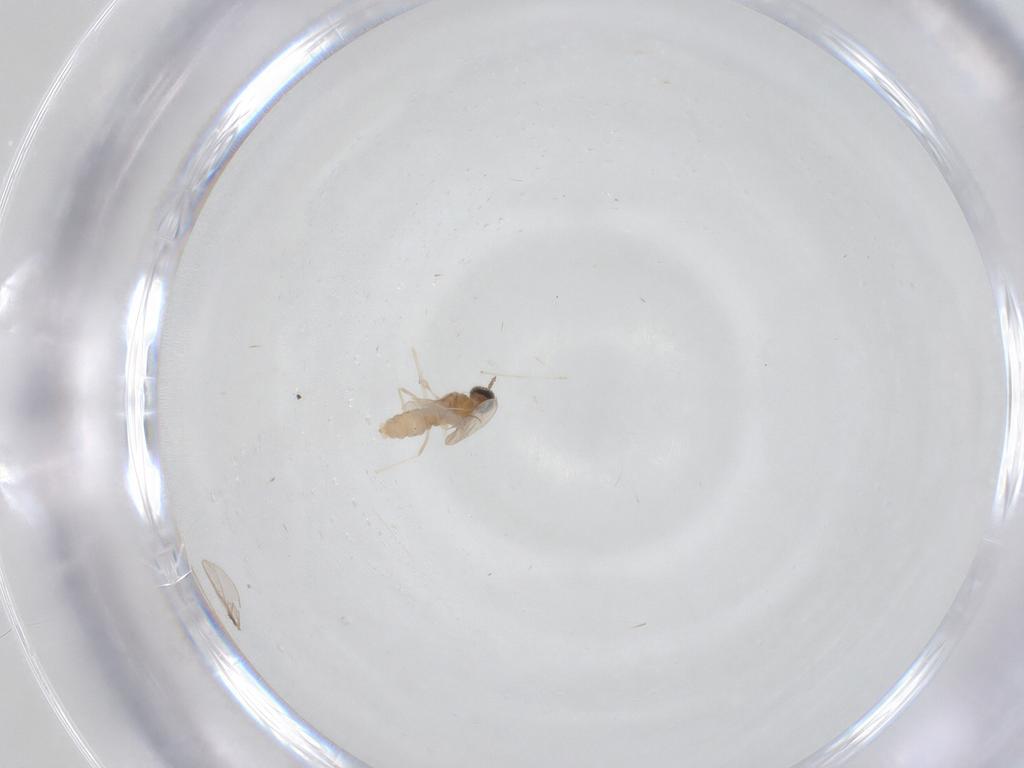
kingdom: Animalia
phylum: Arthropoda
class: Insecta
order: Diptera
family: Cecidomyiidae
